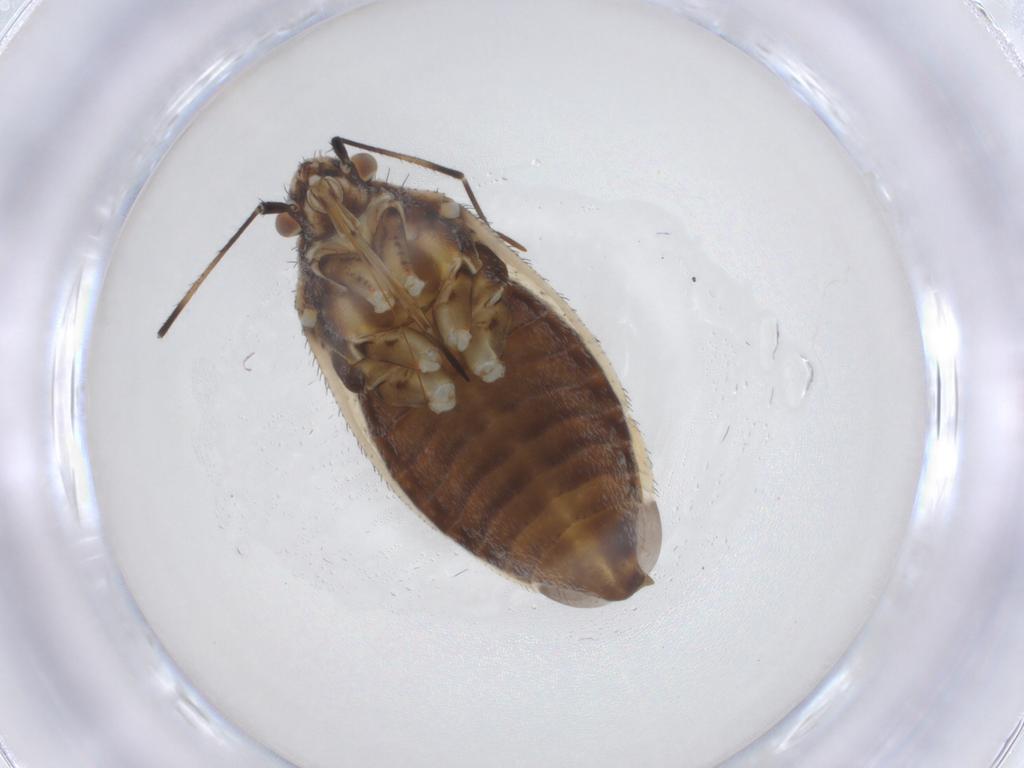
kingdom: Animalia
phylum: Arthropoda
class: Insecta
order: Hemiptera
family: Miridae
